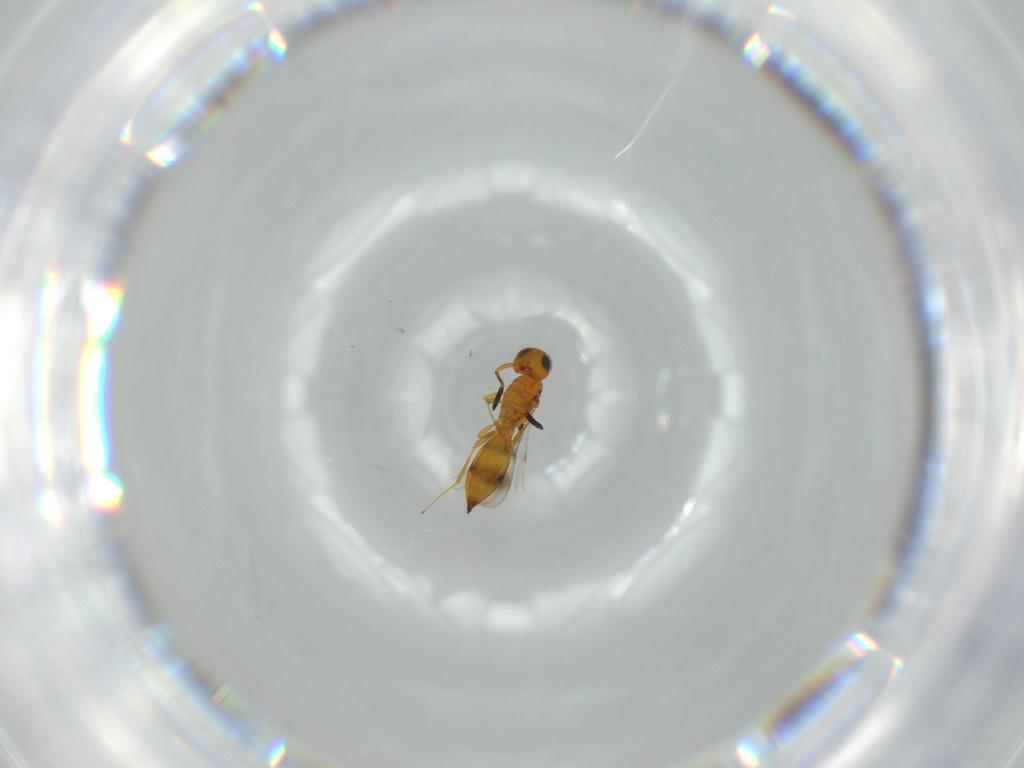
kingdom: Animalia
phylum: Arthropoda
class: Insecta
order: Hymenoptera
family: Scelionidae
